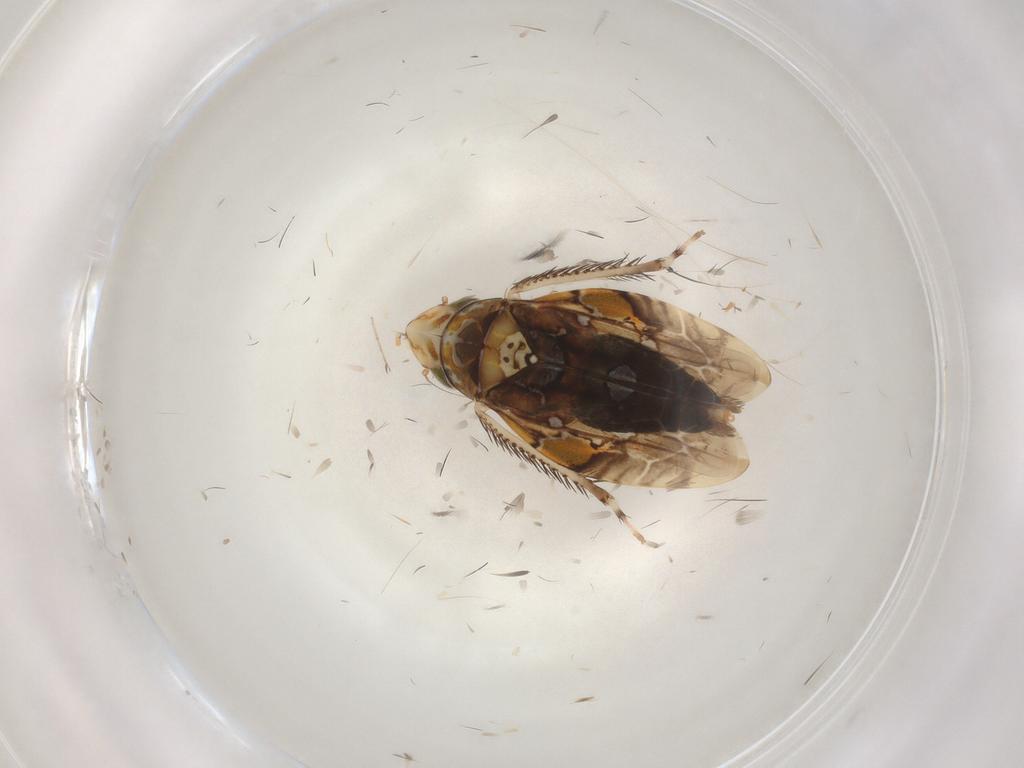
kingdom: Animalia
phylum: Arthropoda
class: Insecta
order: Hemiptera
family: Cicadellidae
